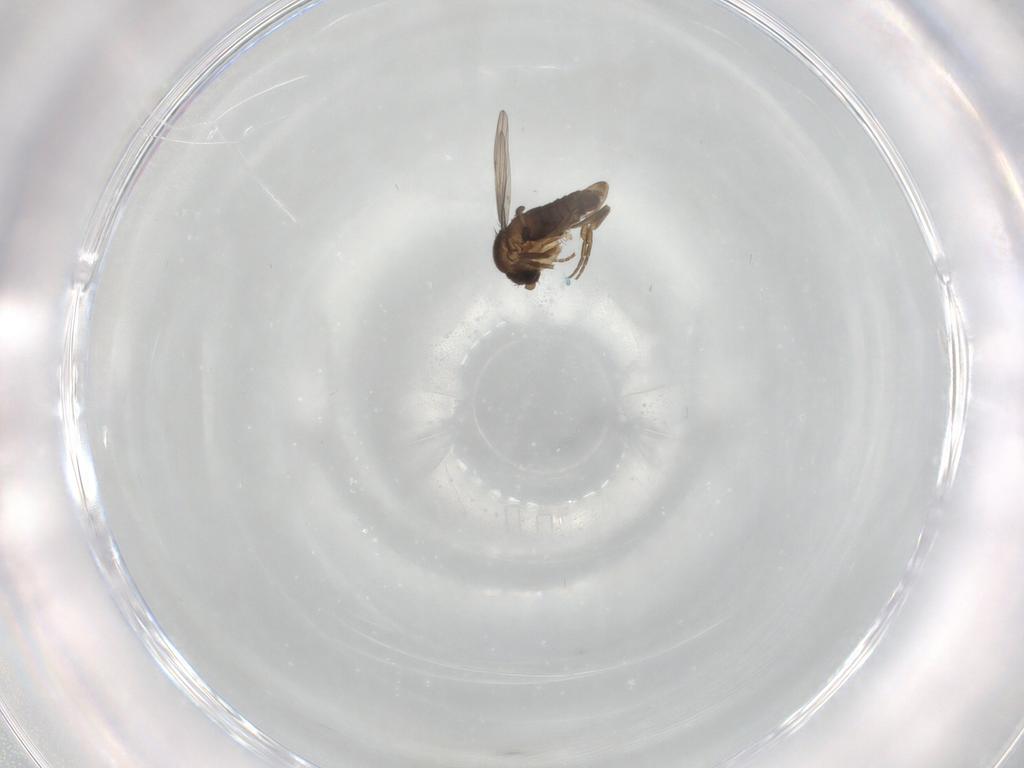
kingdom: Animalia
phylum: Arthropoda
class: Insecta
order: Diptera
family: Phoridae
